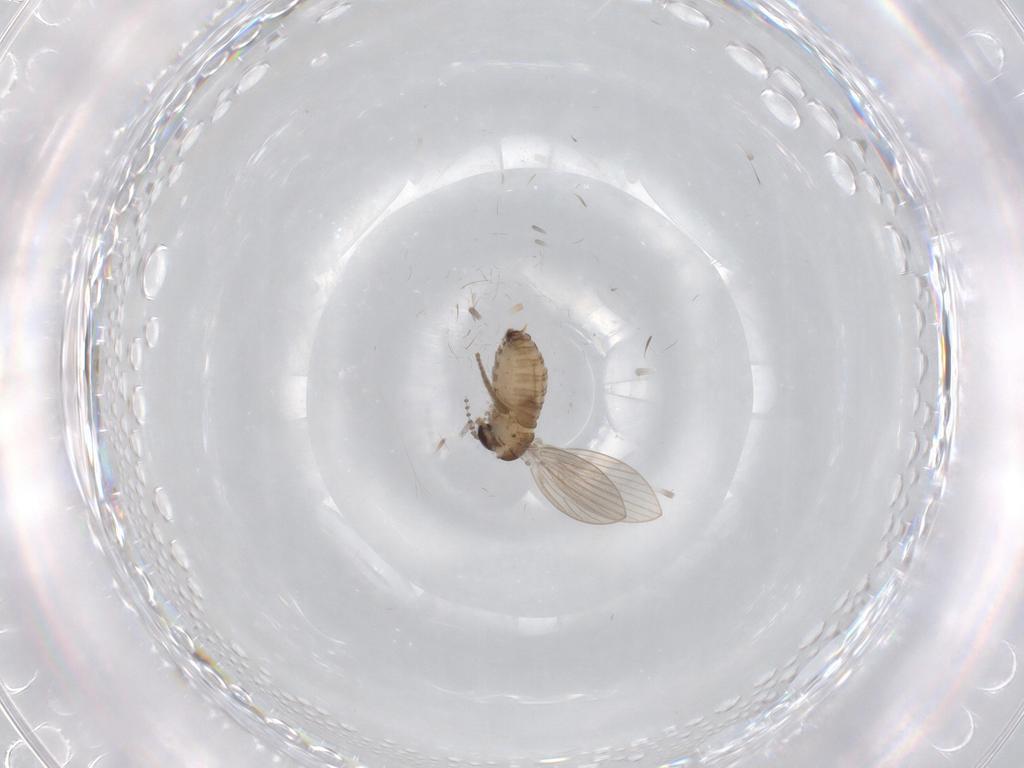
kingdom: Animalia
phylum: Arthropoda
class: Insecta
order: Diptera
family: Psychodidae
